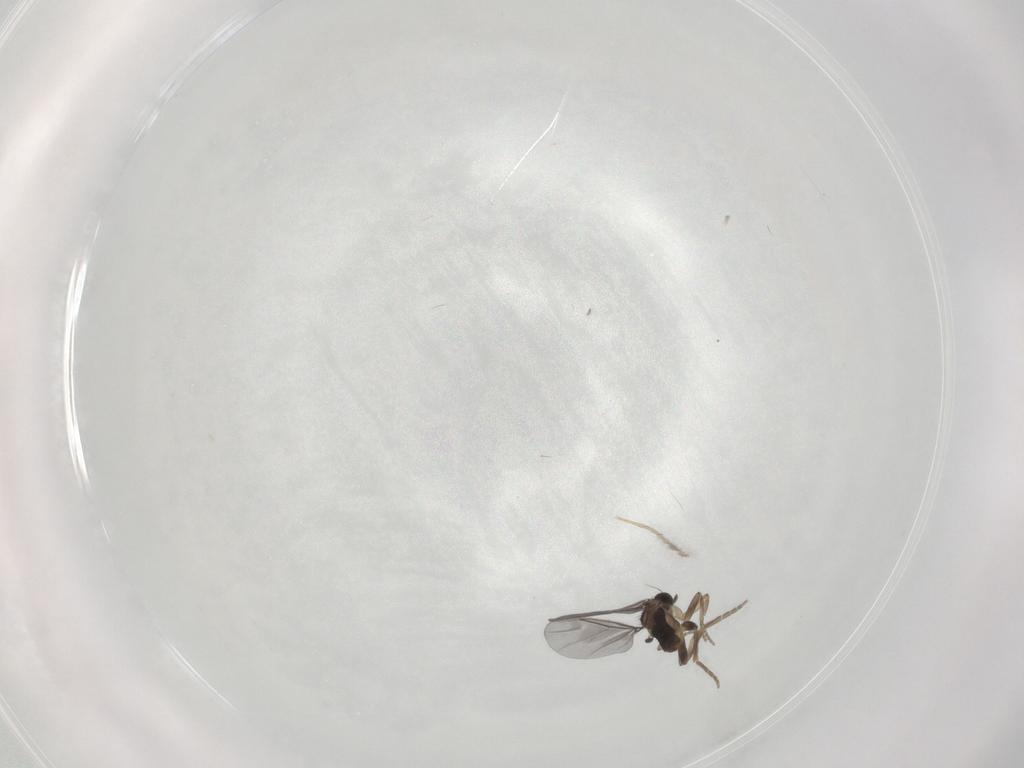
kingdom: Animalia
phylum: Arthropoda
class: Insecta
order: Diptera
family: Chironomidae
